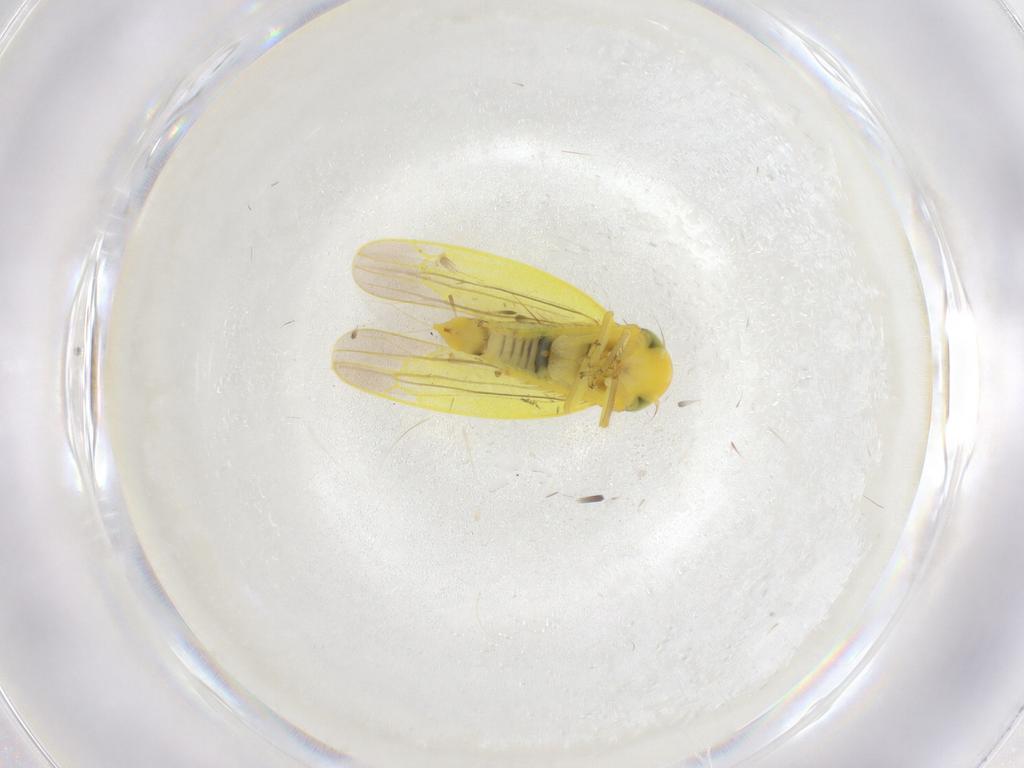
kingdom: Animalia
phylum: Arthropoda
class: Insecta
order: Hemiptera
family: Cicadellidae
